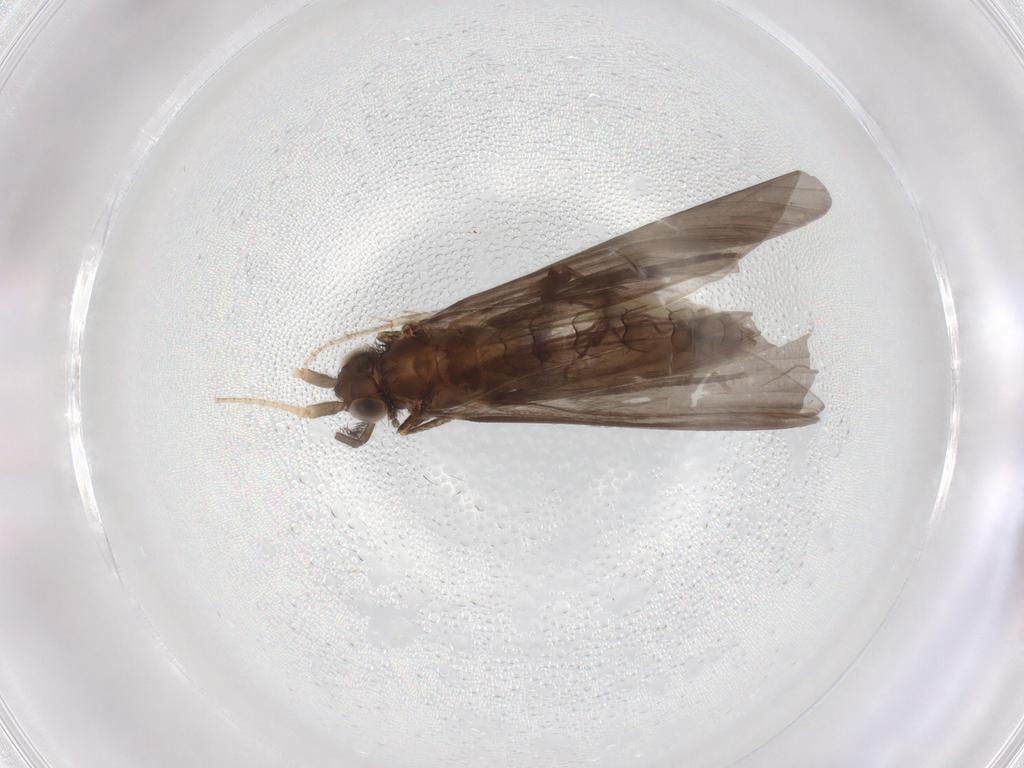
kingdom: Animalia
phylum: Arthropoda
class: Insecta
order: Trichoptera
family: Helicopsychidae
